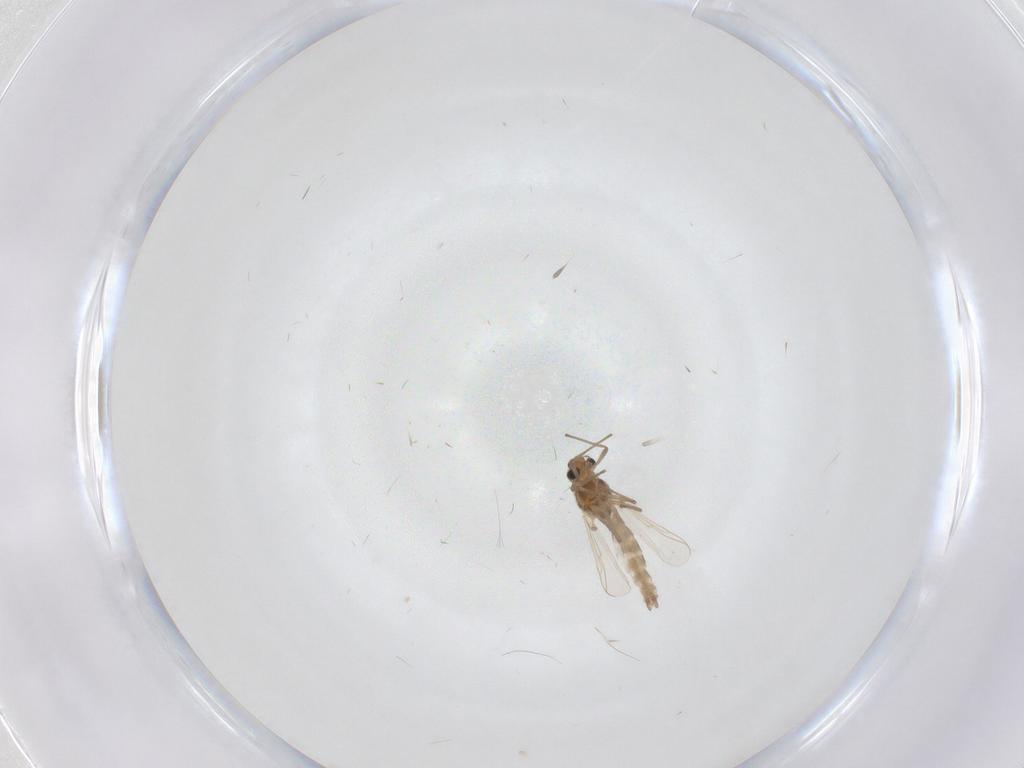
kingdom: Animalia
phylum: Arthropoda
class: Insecta
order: Diptera
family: Chironomidae
